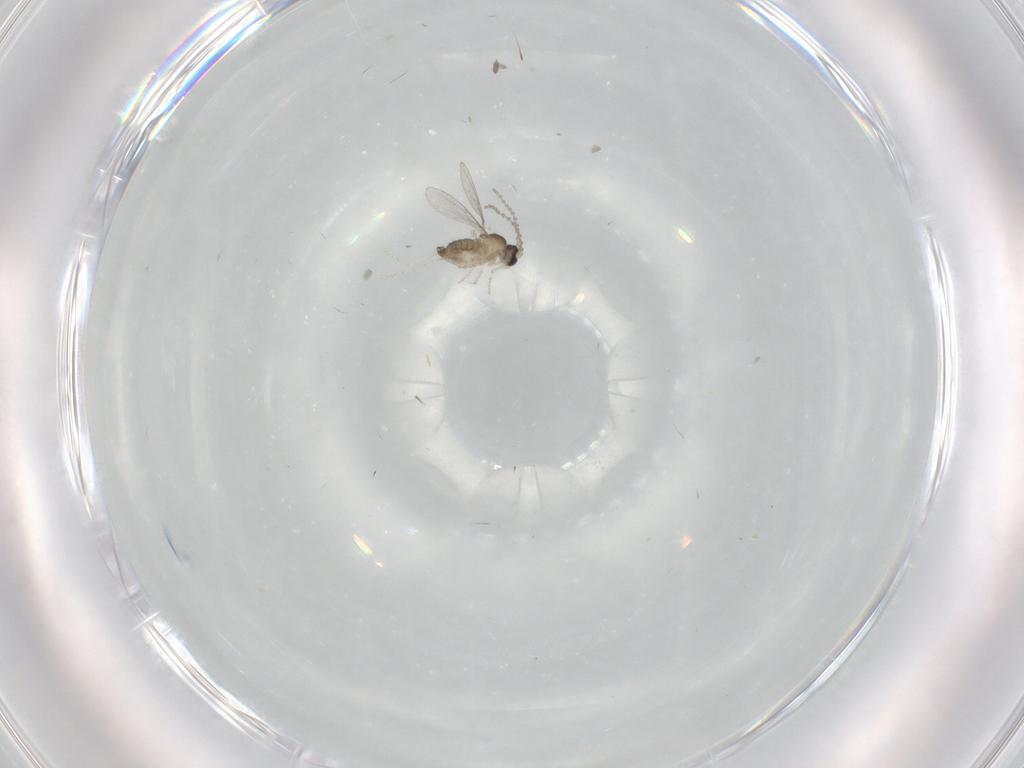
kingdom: Animalia
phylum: Arthropoda
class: Insecta
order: Diptera
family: Cecidomyiidae
